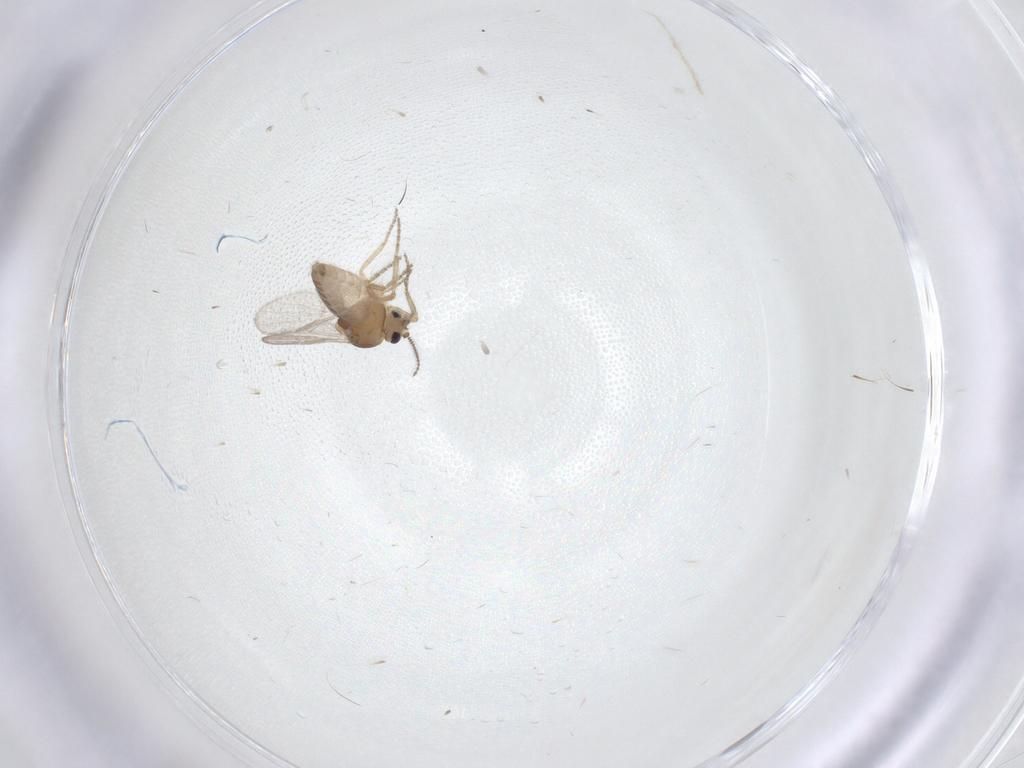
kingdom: Animalia
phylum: Arthropoda
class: Insecta
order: Diptera
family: Ceratopogonidae
